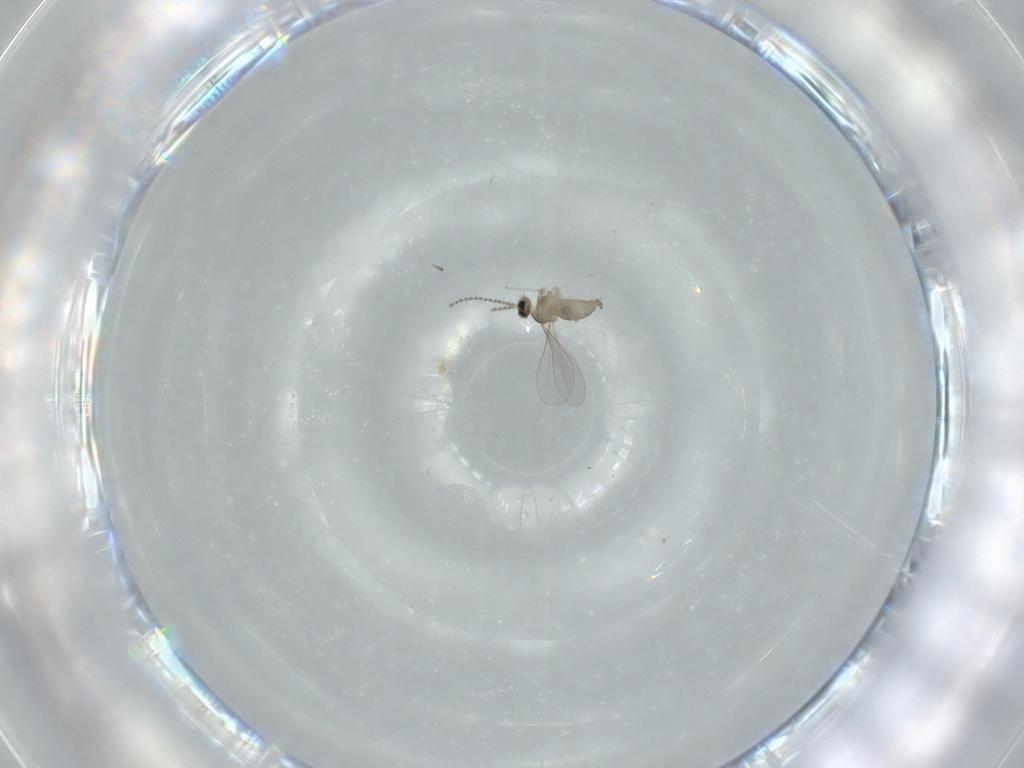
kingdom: Animalia
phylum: Arthropoda
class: Insecta
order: Diptera
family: Cecidomyiidae
